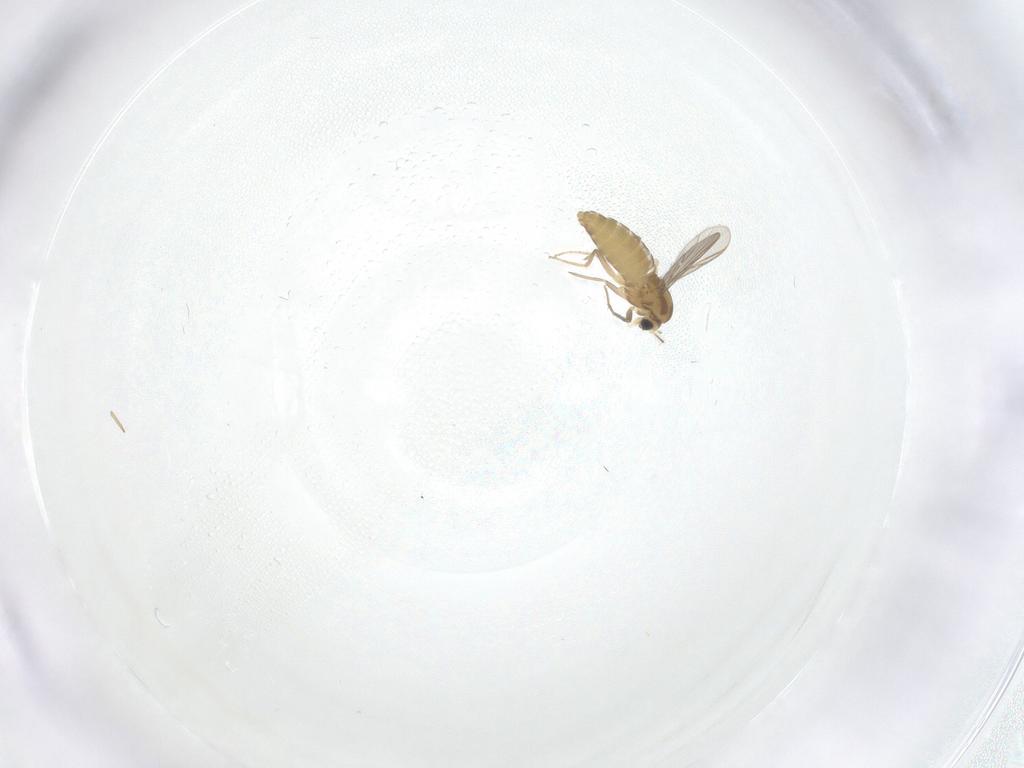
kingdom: Animalia
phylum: Arthropoda
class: Insecta
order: Diptera
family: Chironomidae
